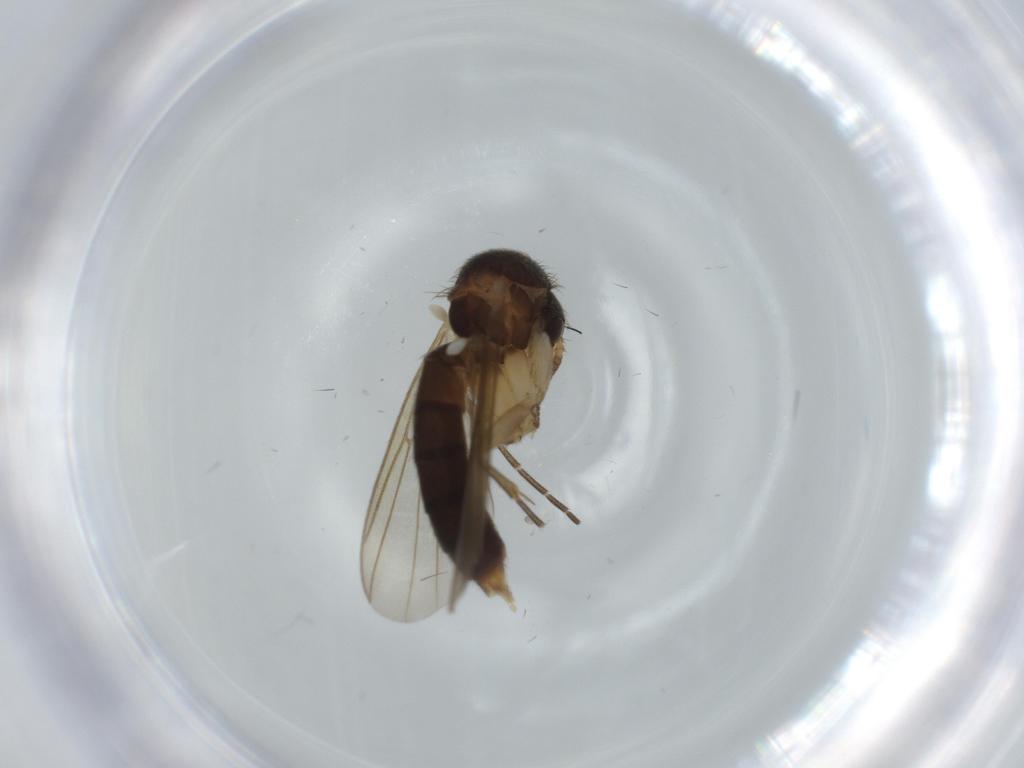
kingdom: Animalia
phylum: Arthropoda
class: Insecta
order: Diptera
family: Mycetophilidae
